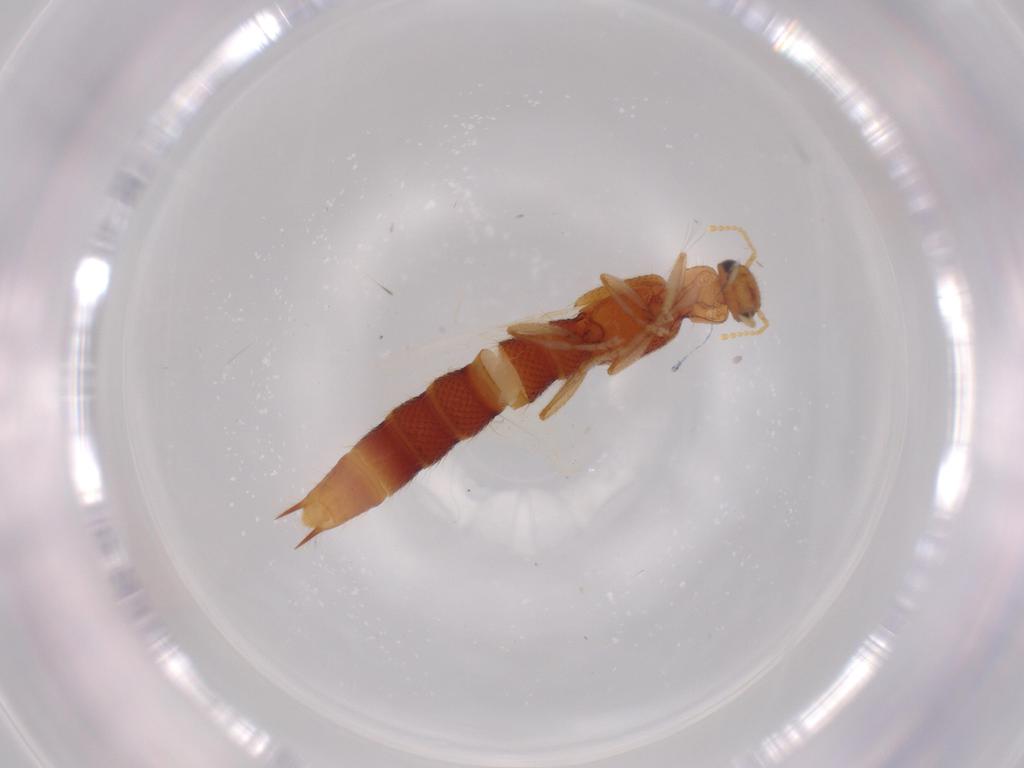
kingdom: Animalia
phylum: Arthropoda
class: Insecta
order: Coleoptera
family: Staphylinidae
